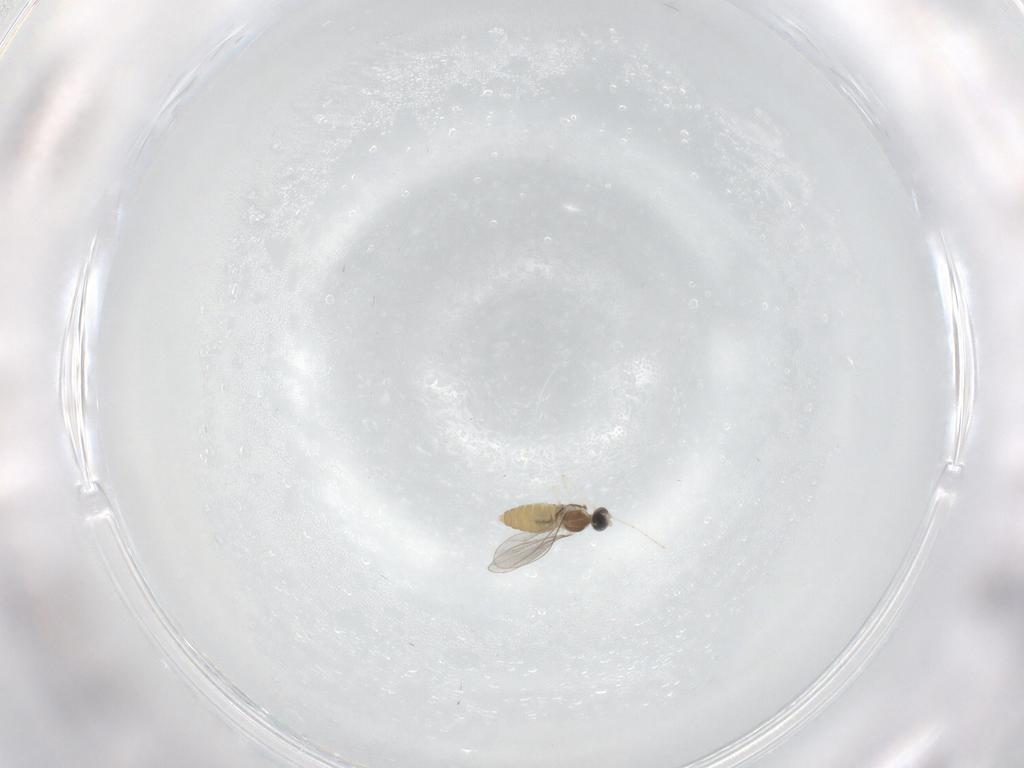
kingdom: Animalia
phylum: Arthropoda
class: Insecta
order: Diptera
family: Cecidomyiidae
